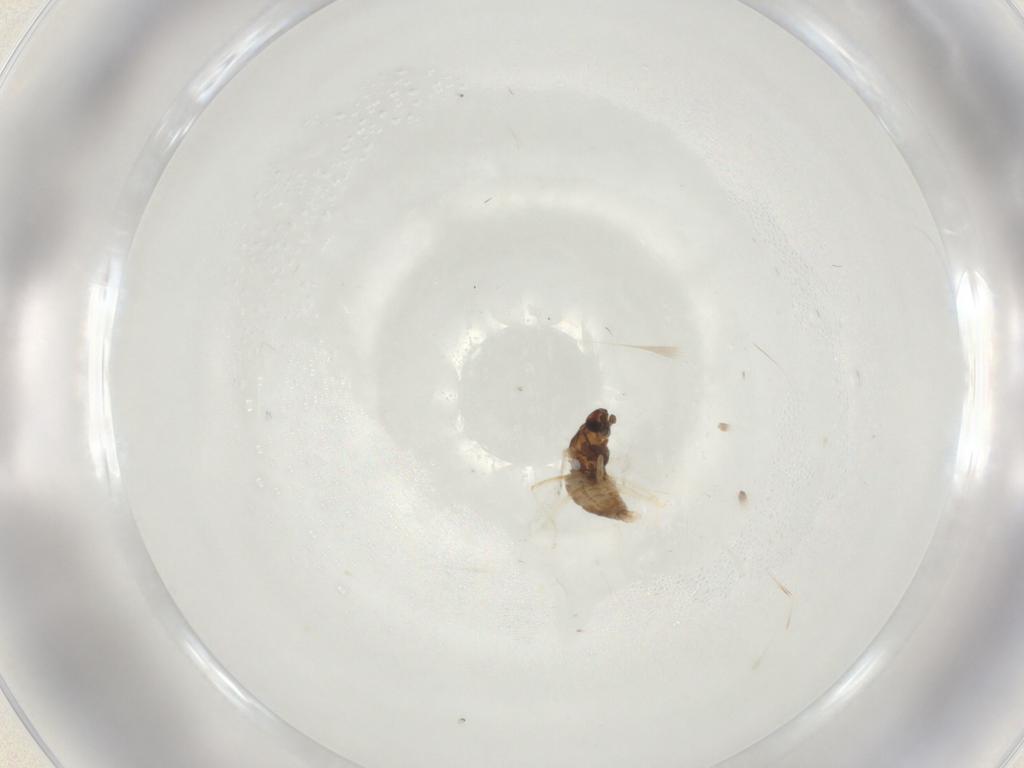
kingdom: Animalia
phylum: Arthropoda
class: Insecta
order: Diptera
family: Cecidomyiidae
